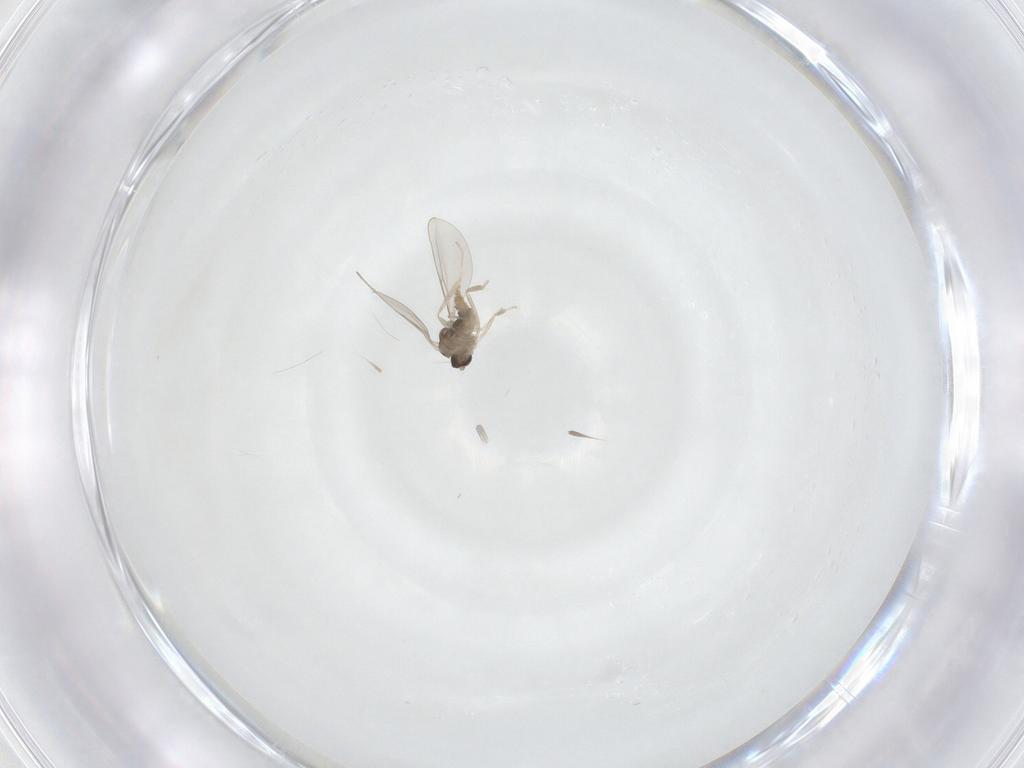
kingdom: Animalia
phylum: Arthropoda
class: Insecta
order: Diptera
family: Cecidomyiidae
